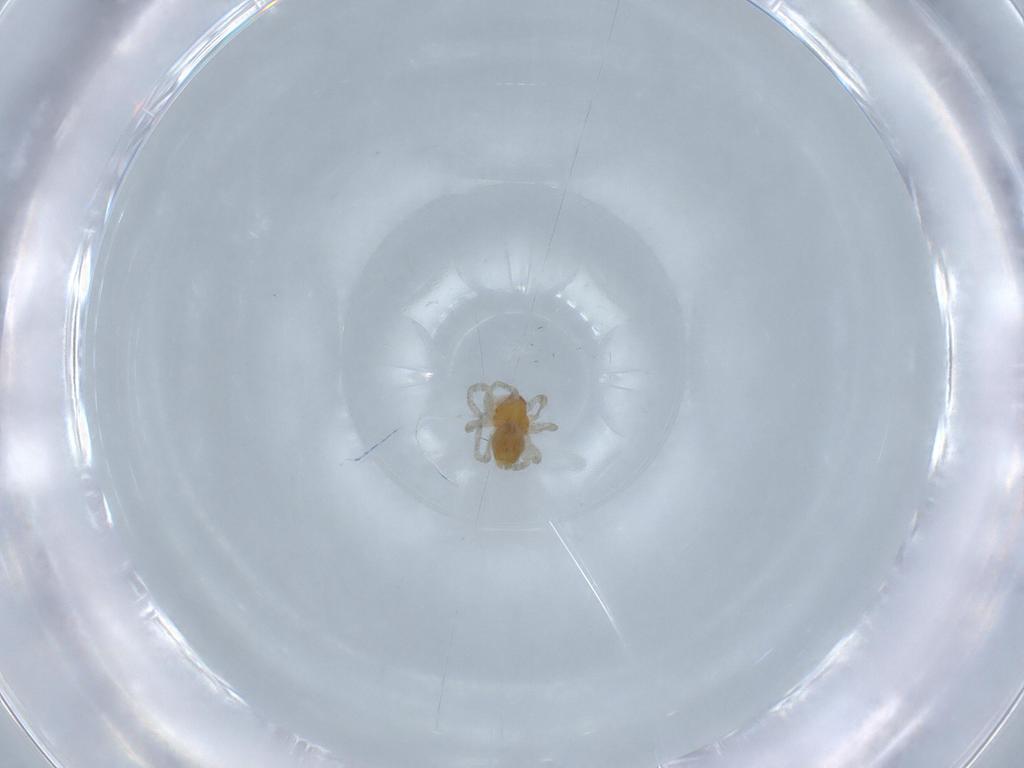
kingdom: Animalia
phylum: Arthropoda
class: Arachnida
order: Araneae
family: Dictynidae
